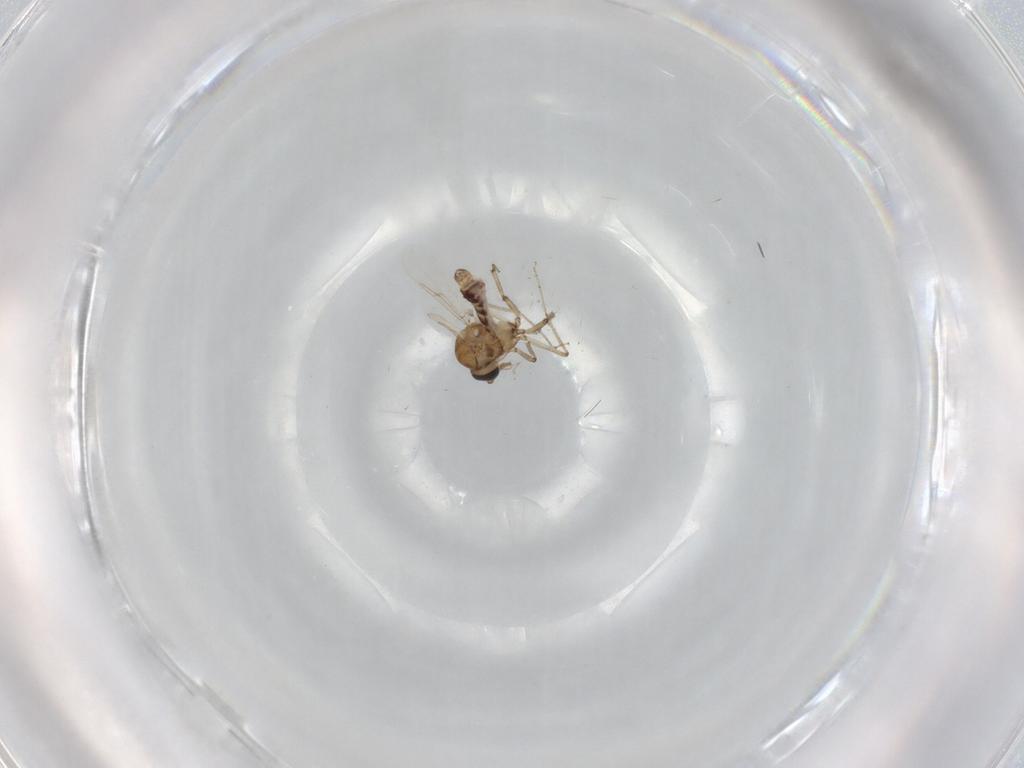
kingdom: Animalia
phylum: Arthropoda
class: Insecta
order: Diptera
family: Ceratopogonidae
